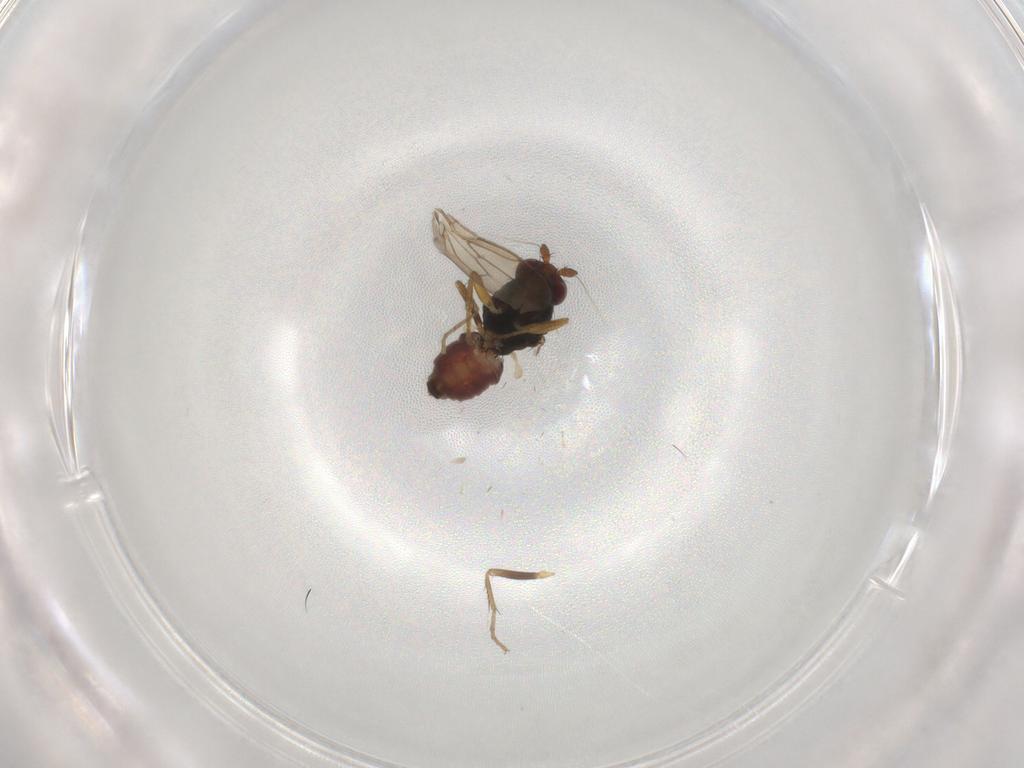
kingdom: Animalia
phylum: Arthropoda
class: Insecta
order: Diptera
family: Sphaeroceridae
